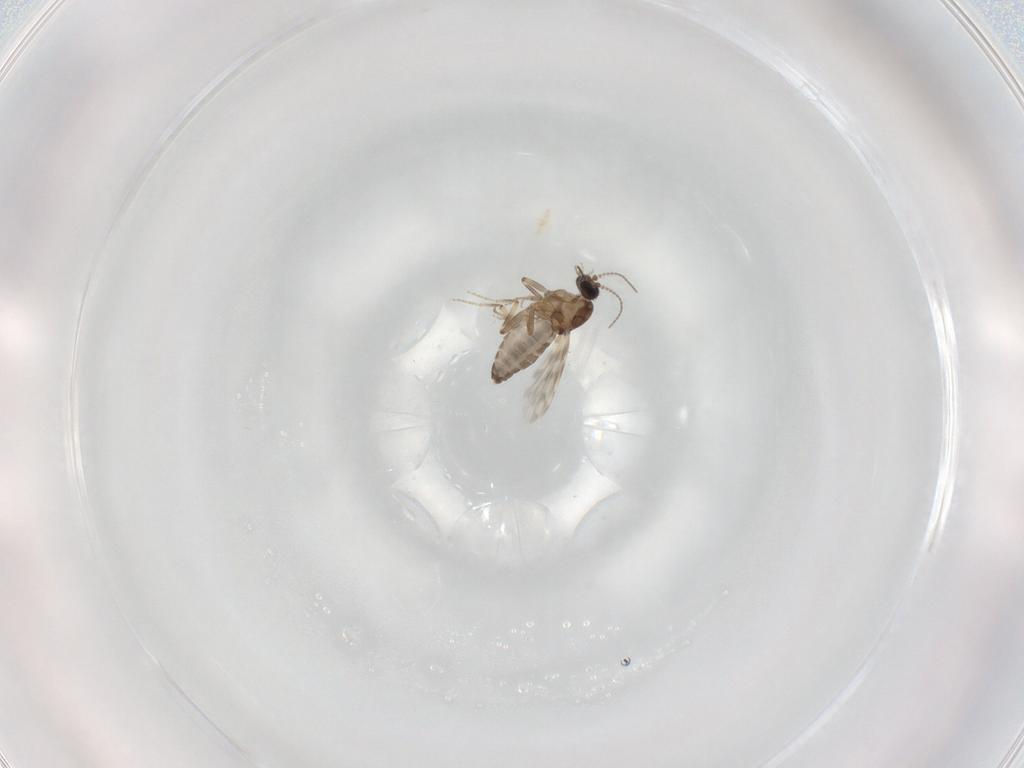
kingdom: Animalia
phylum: Arthropoda
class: Insecta
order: Diptera
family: Ceratopogonidae
